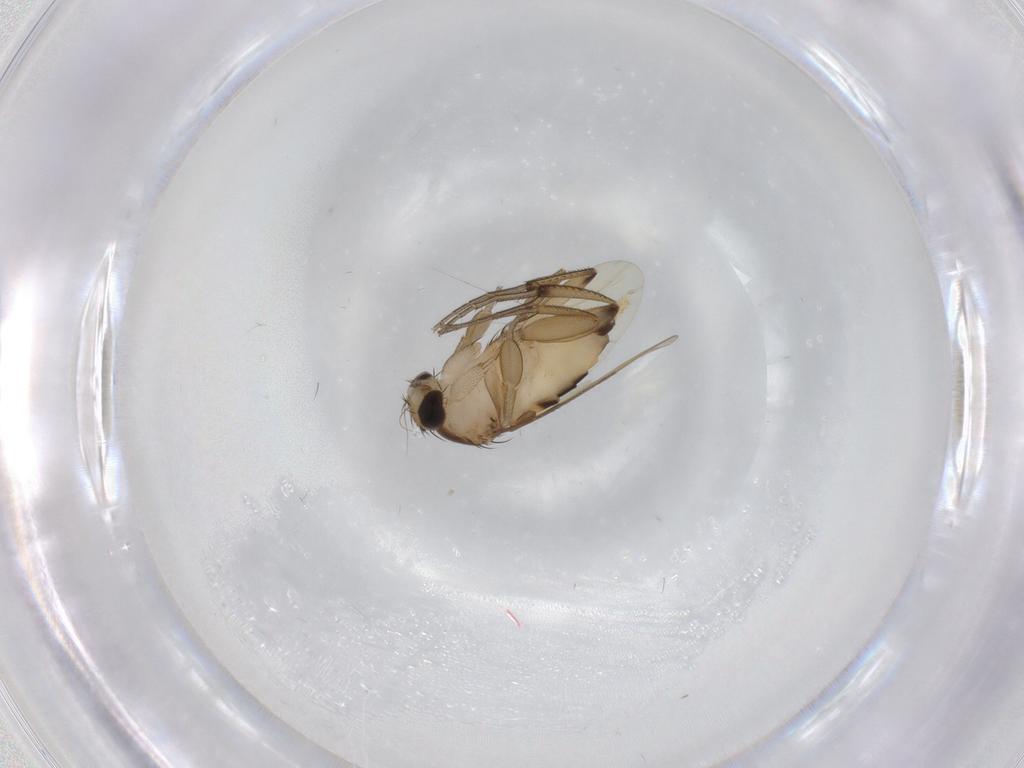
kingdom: Animalia
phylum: Arthropoda
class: Insecta
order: Diptera
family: Phoridae
